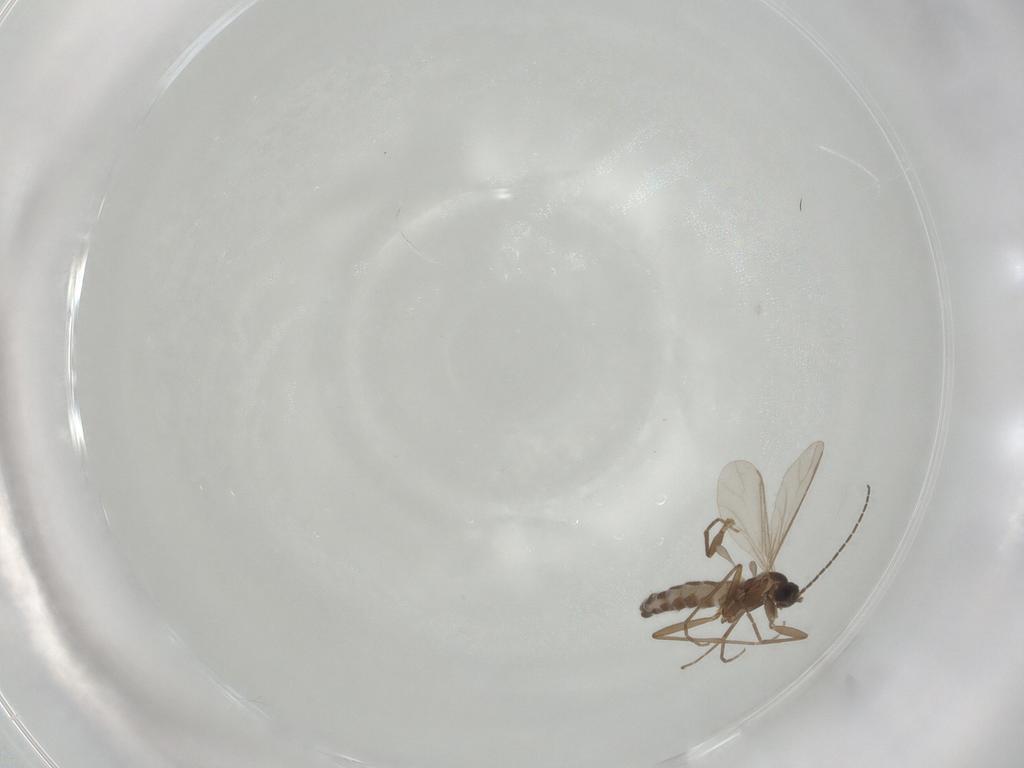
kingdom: Animalia
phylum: Arthropoda
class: Insecta
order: Diptera
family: Sciaridae
